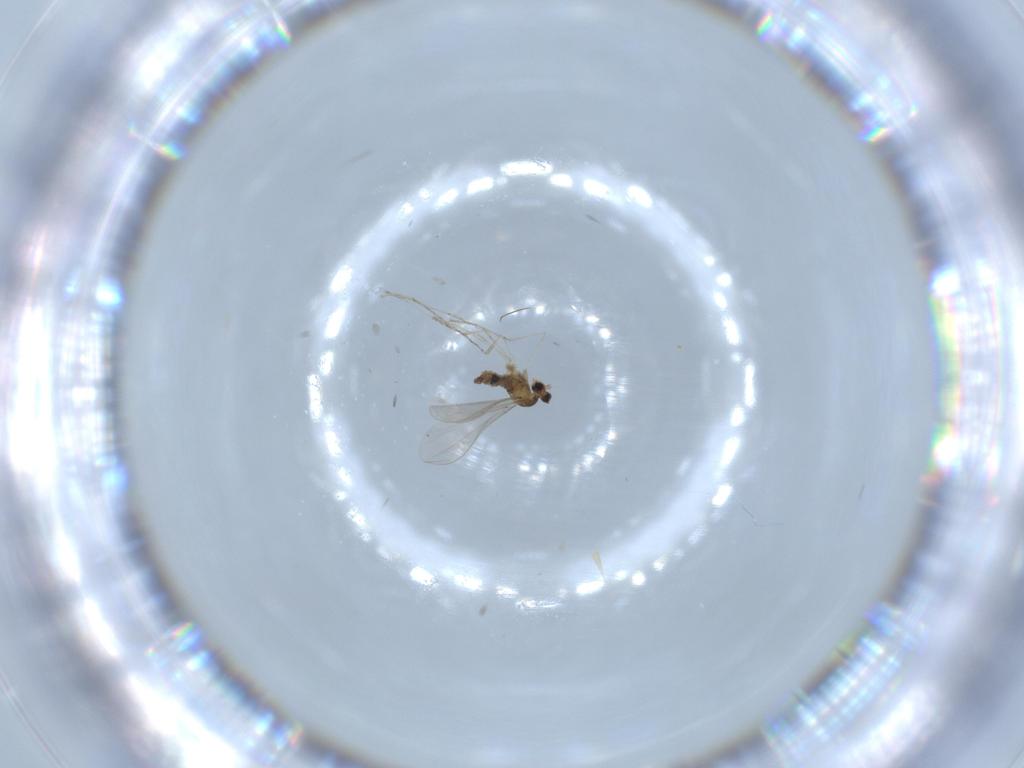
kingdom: Animalia
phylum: Arthropoda
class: Insecta
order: Diptera
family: Cecidomyiidae
